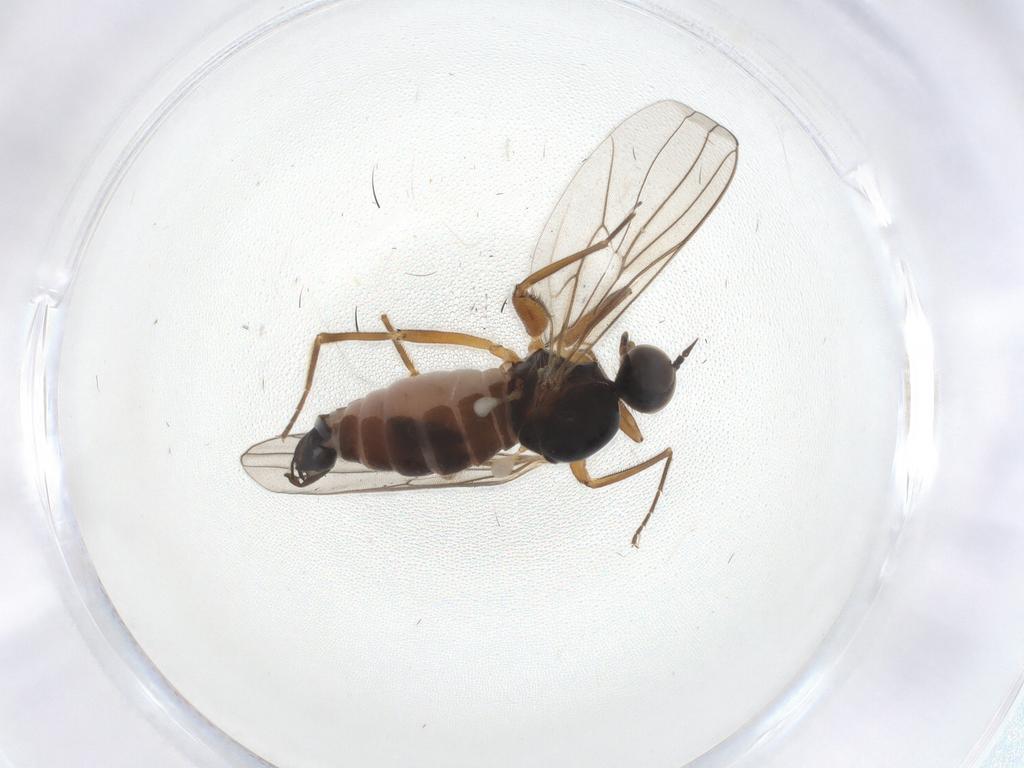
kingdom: Animalia
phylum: Arthropoda
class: Insecta
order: Diptera
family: Hybotidae
